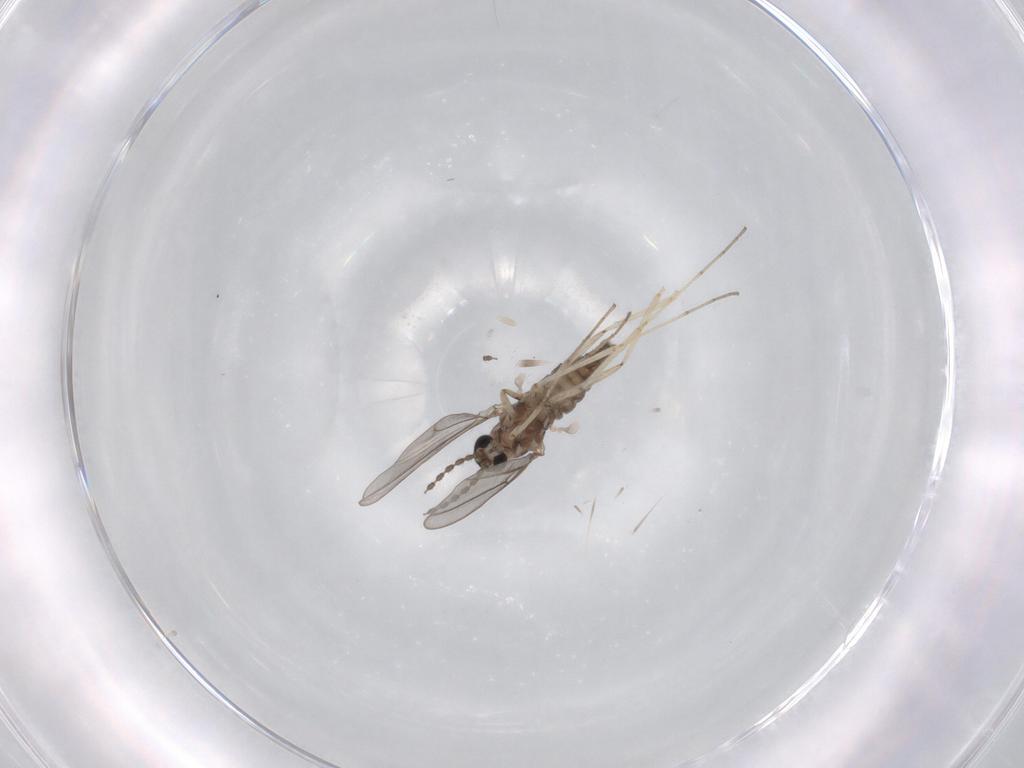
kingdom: Animalia
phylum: Arthropoda
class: Insecta
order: Diptera
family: Cecidomyiidae
